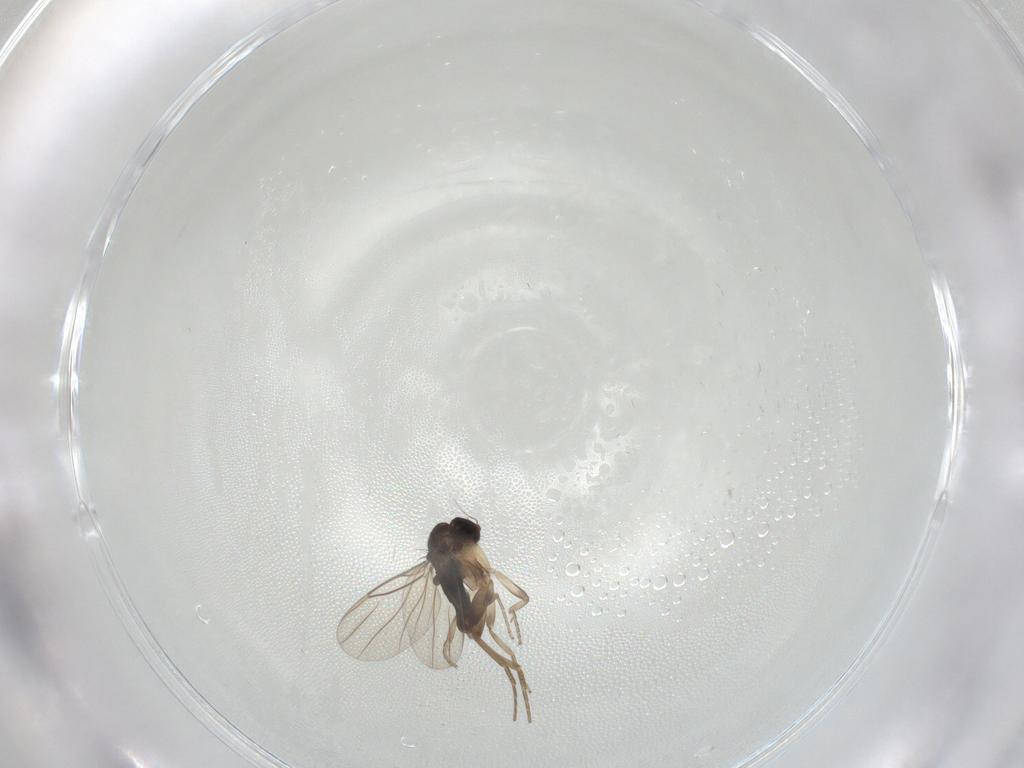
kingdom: Animalia
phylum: Arthropoda
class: Insecta
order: Diptera
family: Phoridae
